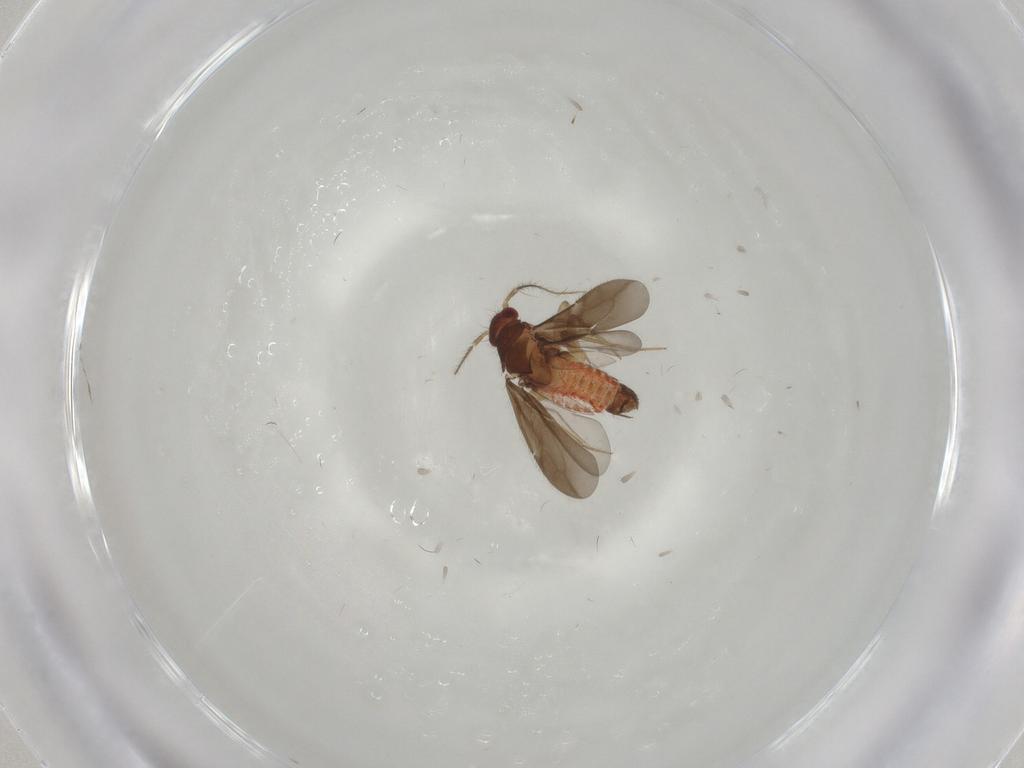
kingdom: Animalia
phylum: Arthropoda
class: Insecta
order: Hemiptera
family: Ceratocombidae
